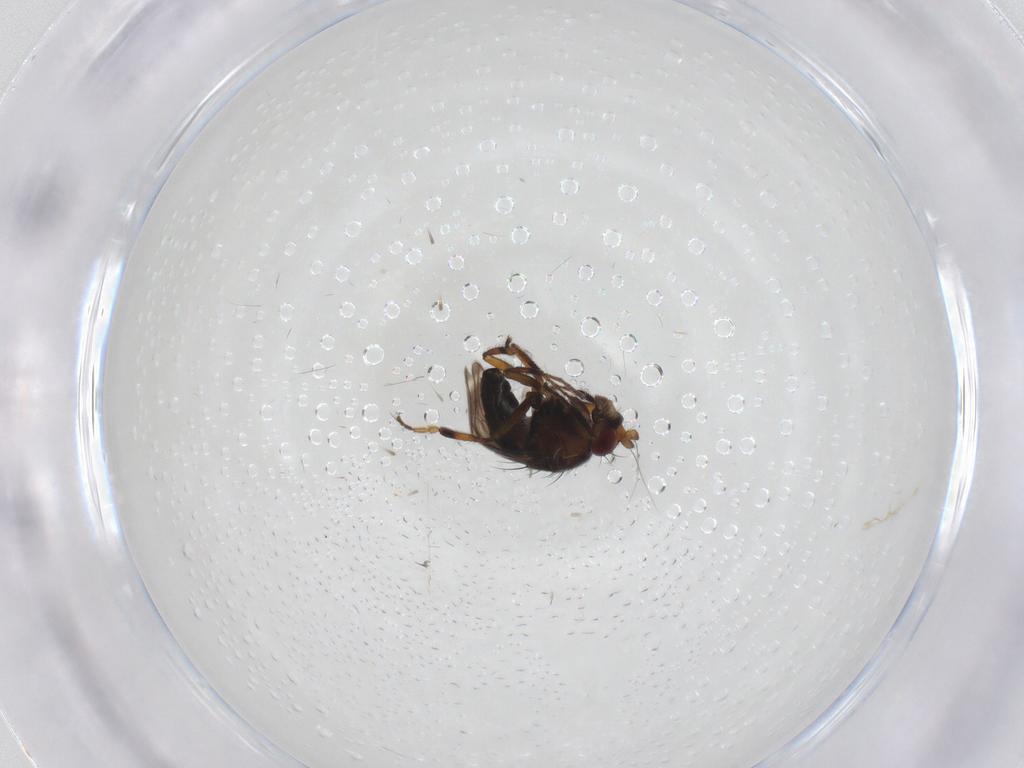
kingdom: Animalia
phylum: Arthropoda
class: Insecta
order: Diptera
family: Sphaeroceridae
